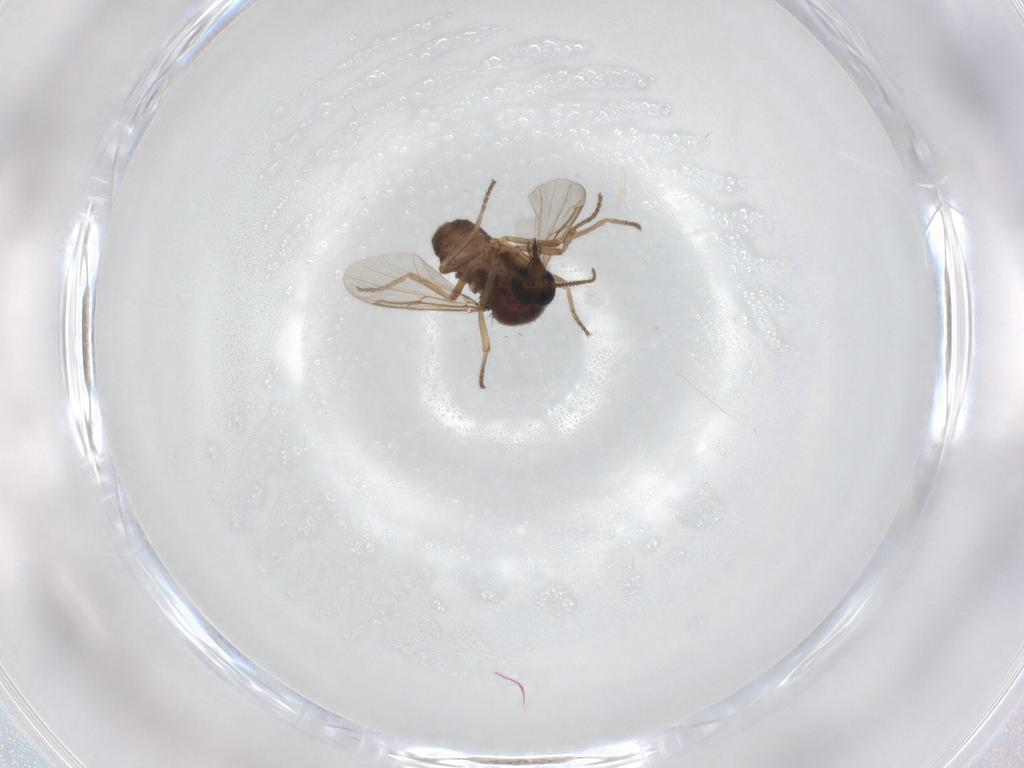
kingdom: Animalia
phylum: Arthropoda
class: Insecta
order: Diptera
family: Ceratopogonidae
